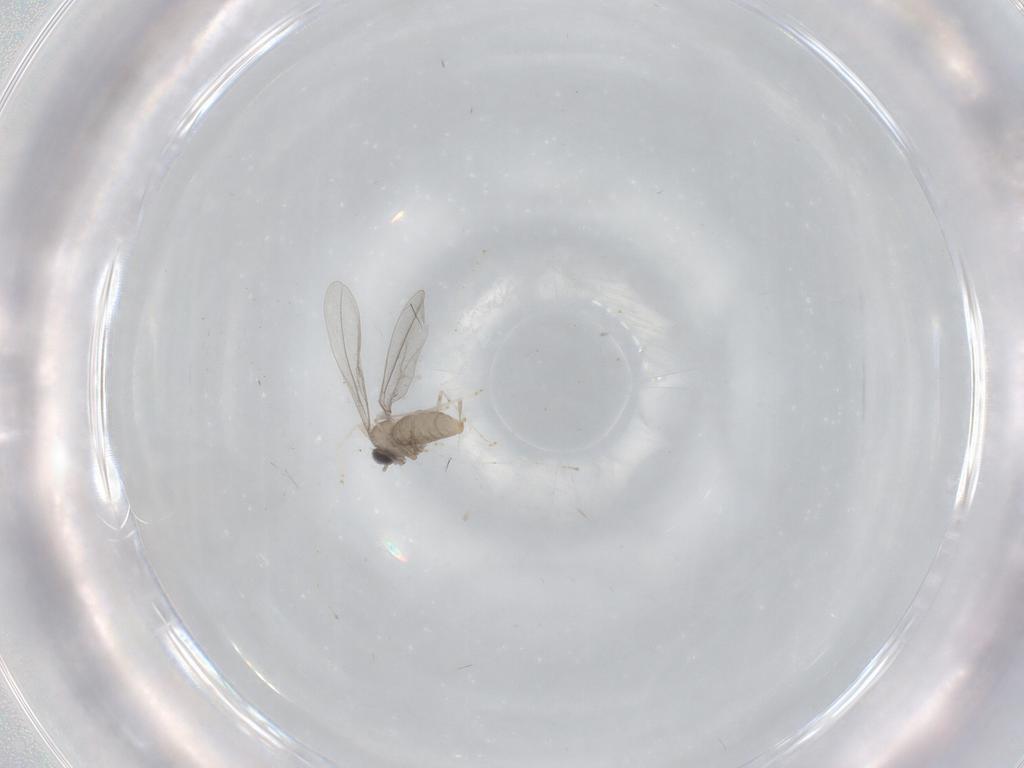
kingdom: Animalia
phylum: Arthropoda
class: Insecta
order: Diptera
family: Cecidomyiidae
